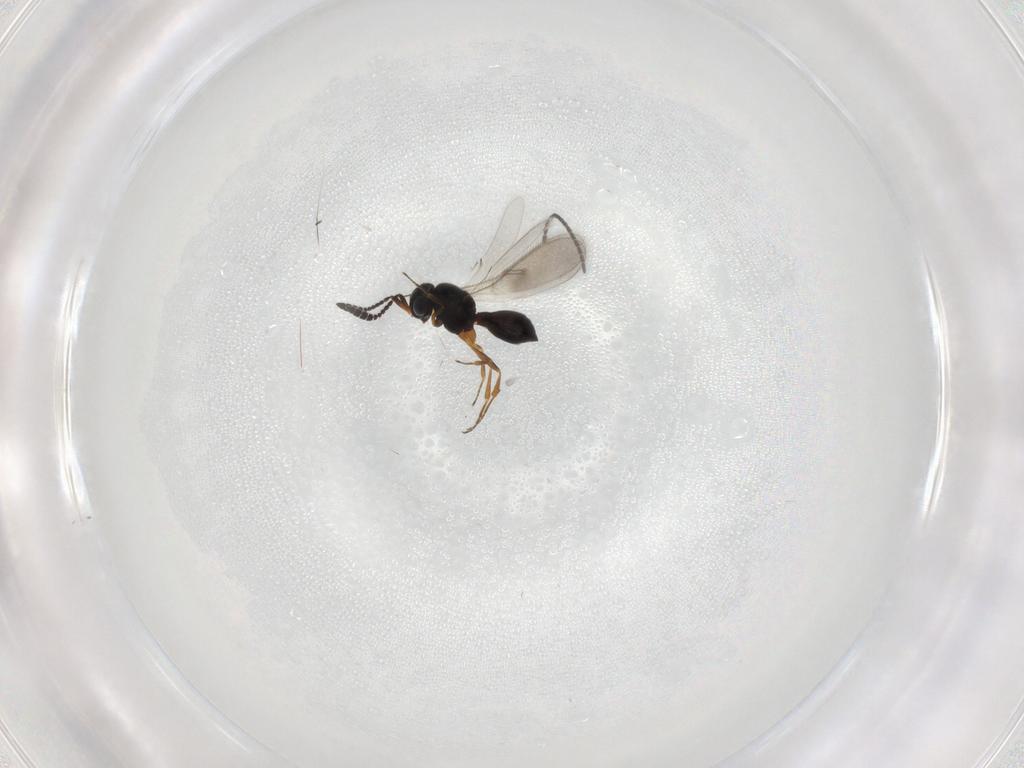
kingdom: Animalia
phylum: Arthropoda
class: Insecta
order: Hymenoptera
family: Scelionidae
